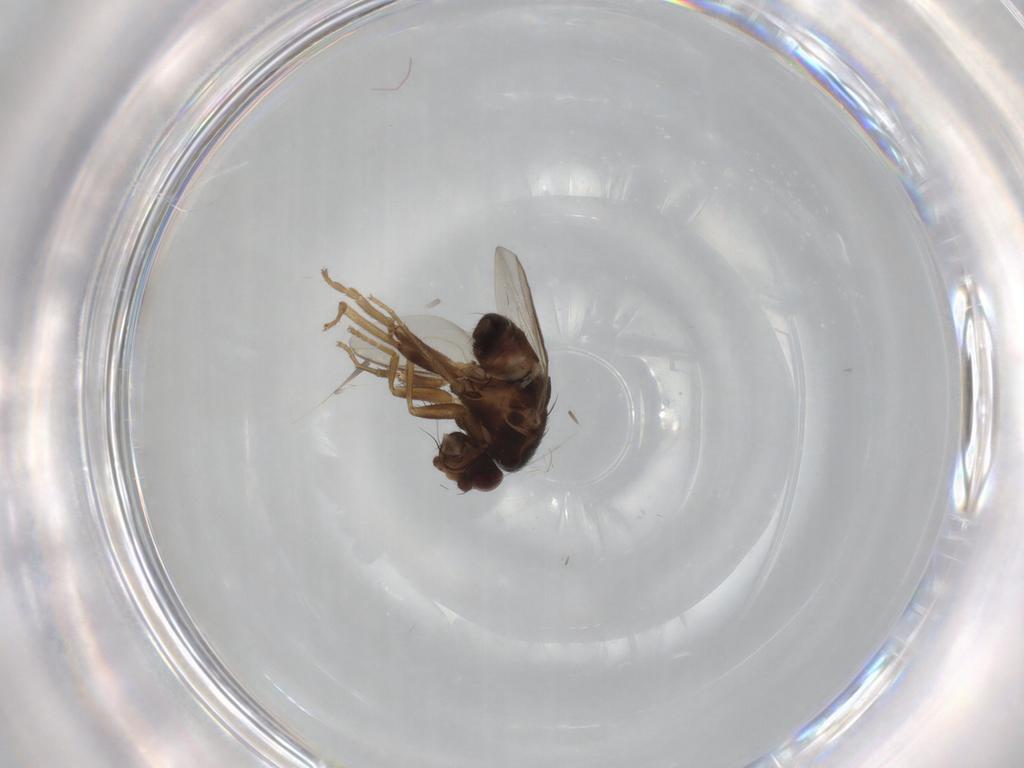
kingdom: Animalia
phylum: Arthropoda
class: Insecta
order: Diptera
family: Sphaeroceridae
